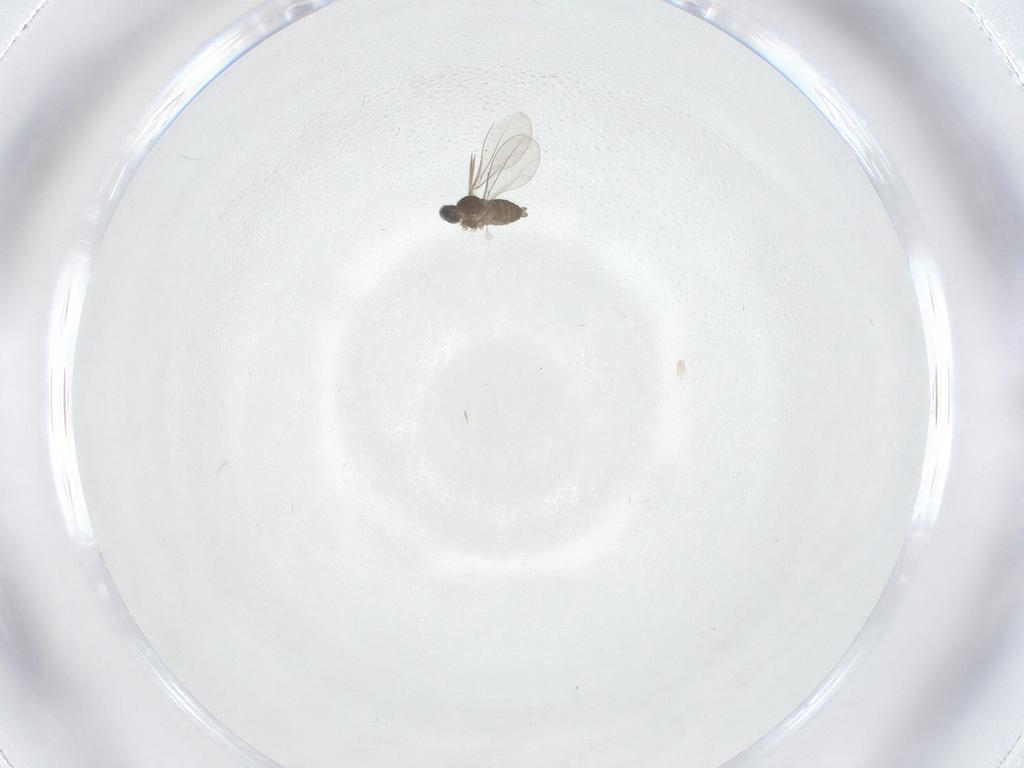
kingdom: Animalia
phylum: Arthropoda
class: Insecta
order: Diptera
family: Cecidomyiidae
